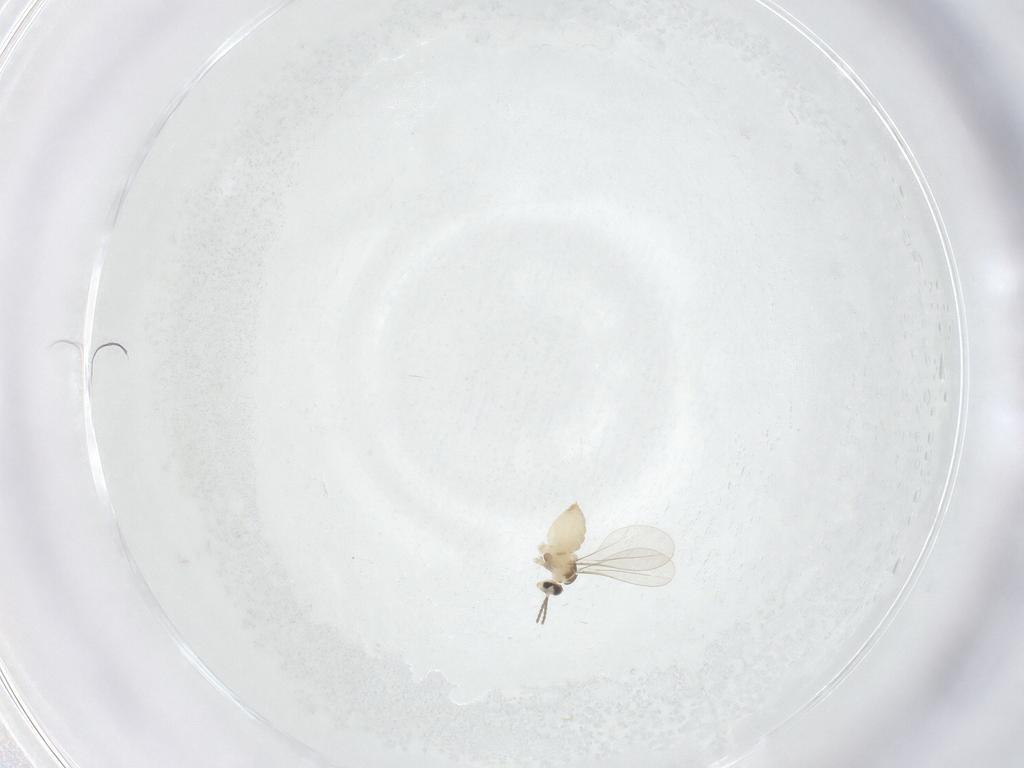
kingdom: Animalia
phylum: Arthropoda
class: Insecta
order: Diptera
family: Cecidomyiidae
